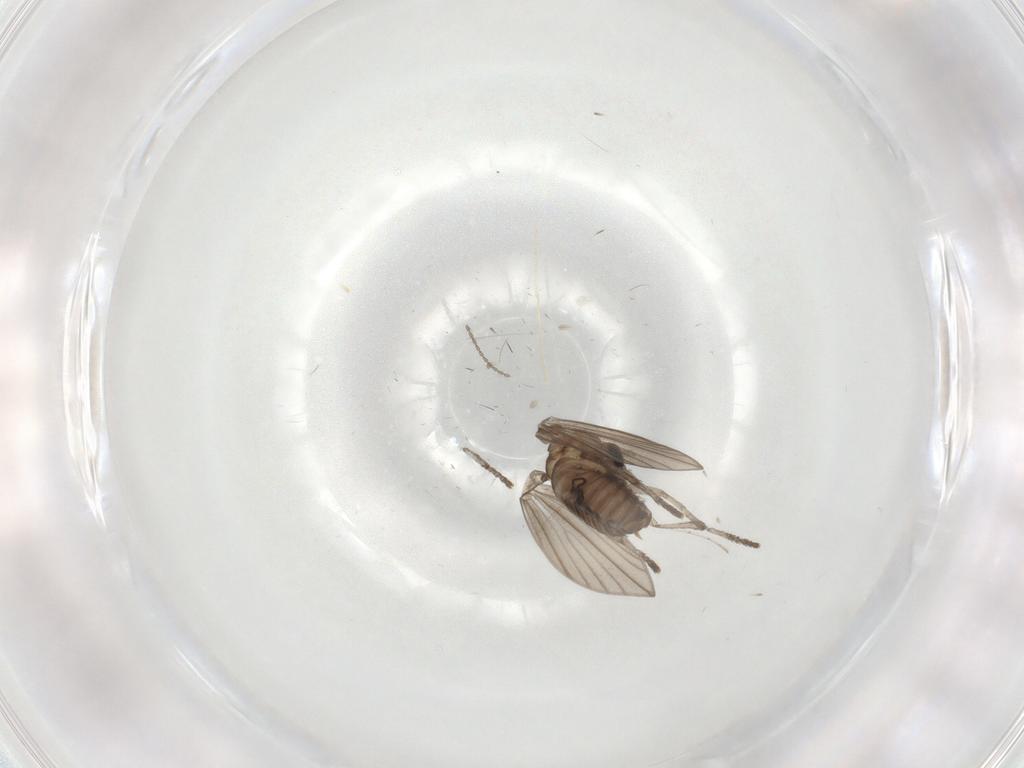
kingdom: Animalia
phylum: Arthropoda
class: Insecta
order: Diptera
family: Psychodidae
